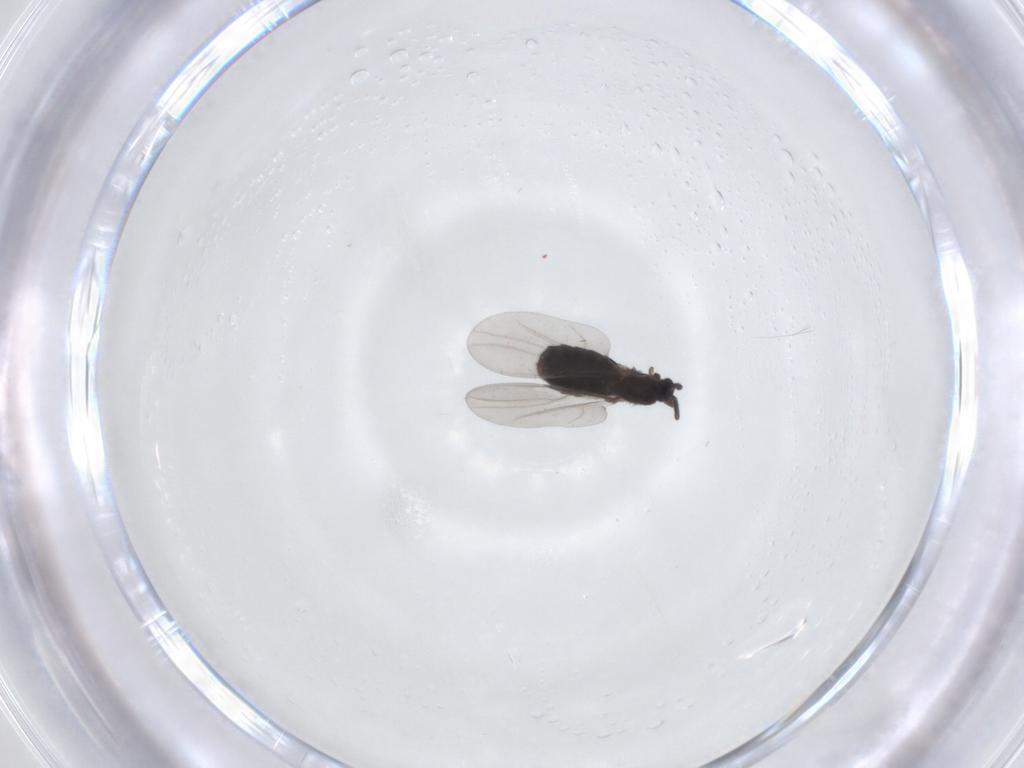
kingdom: Animalia
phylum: Arthropoda
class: Insecta
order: Diptera
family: Scatopsidae
